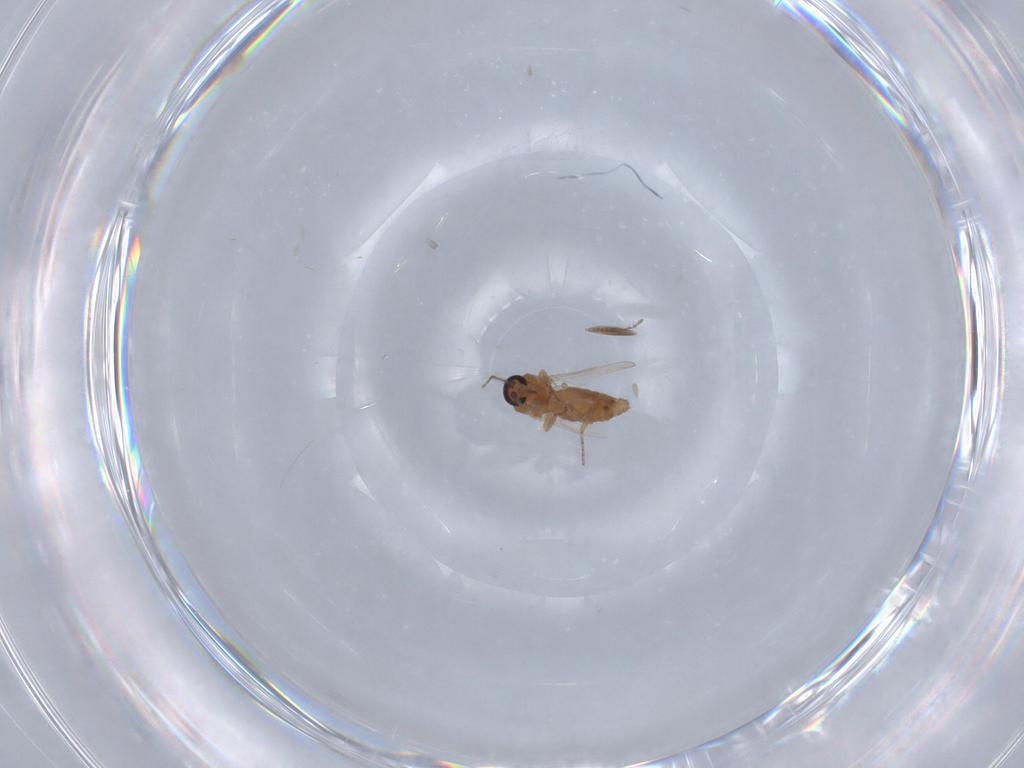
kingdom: Animalia
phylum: Arthropoda
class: Insecta
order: Diptera
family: Ceratopogonidae
